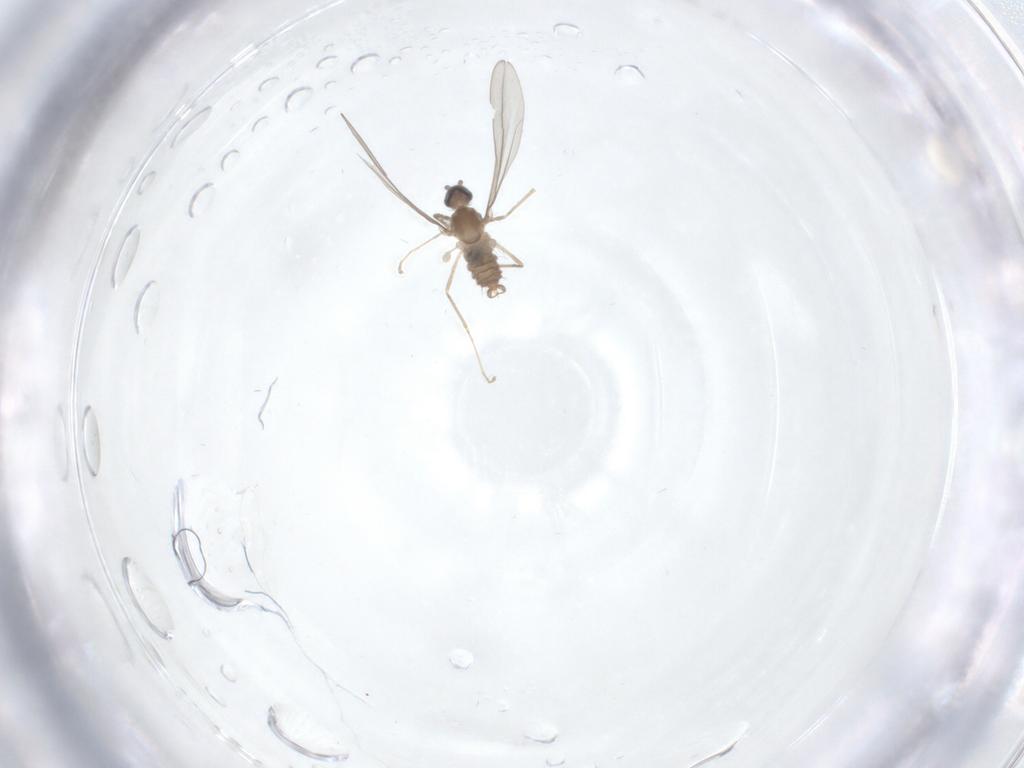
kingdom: Animalia
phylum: Arthropoda
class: Insecta
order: Diptera
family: Cecidomyiidae
